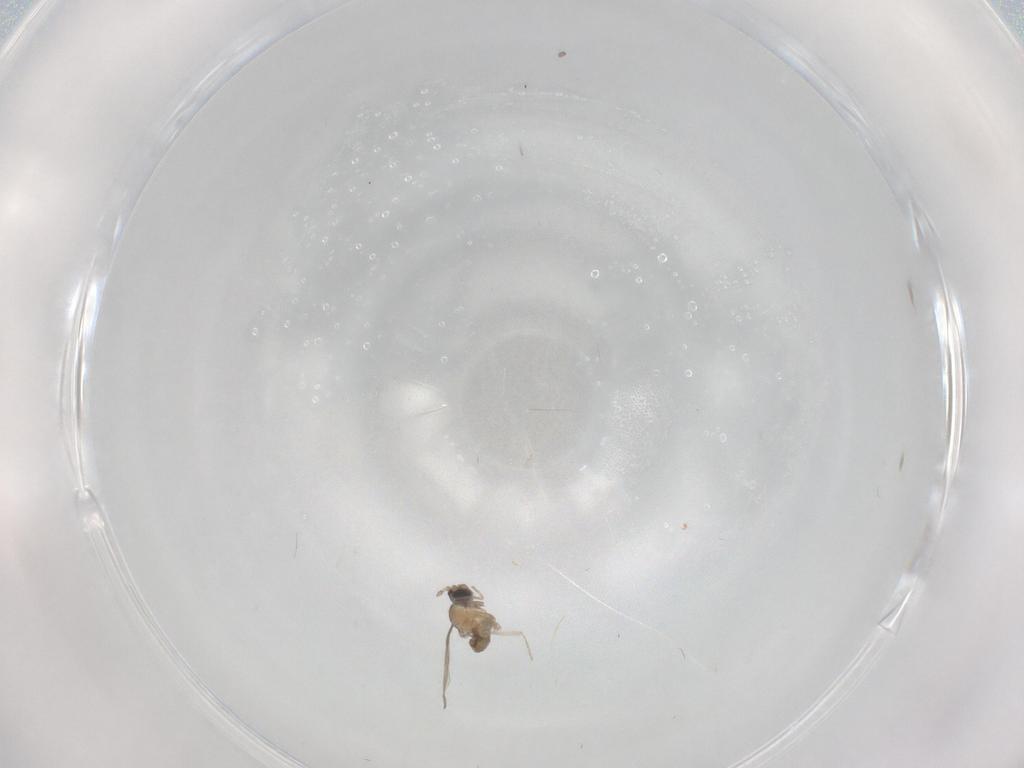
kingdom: Animalia
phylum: Arthropoda
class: Insecta
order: Diptera
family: Cecidomyiidae
